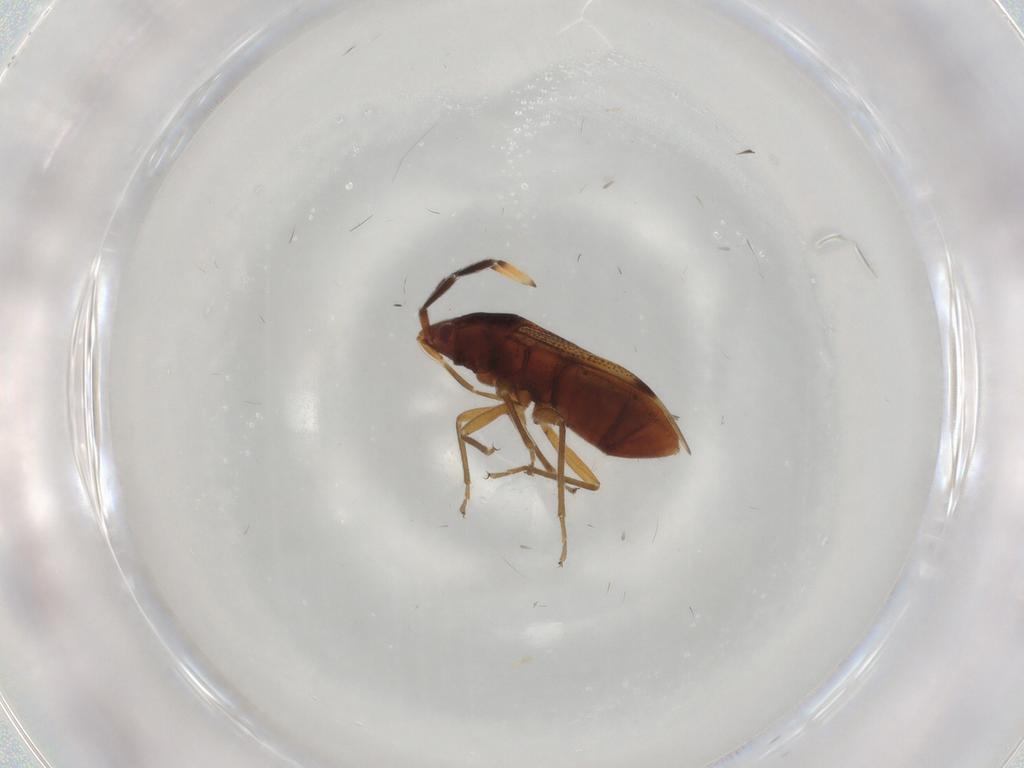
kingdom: Animalia
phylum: Arthropoda
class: Insecta
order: Hemiptera
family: Rhyparochromidae
